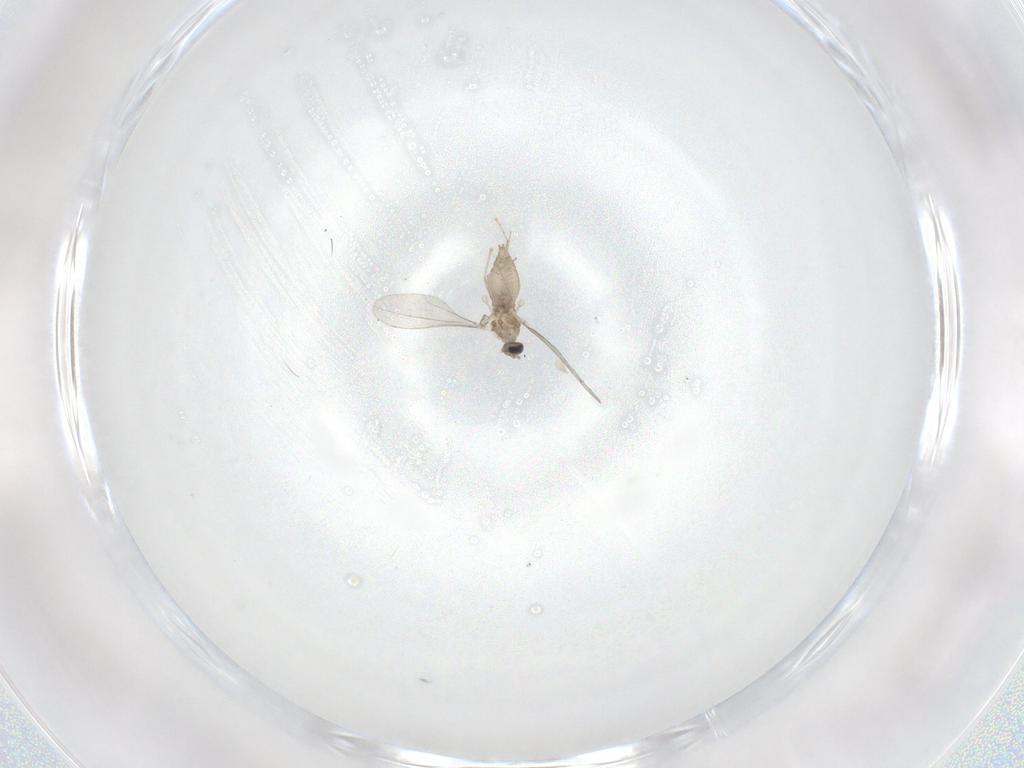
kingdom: Animalia
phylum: Arthropoda
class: Insecta
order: Diptera
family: Cecidomyiidae
